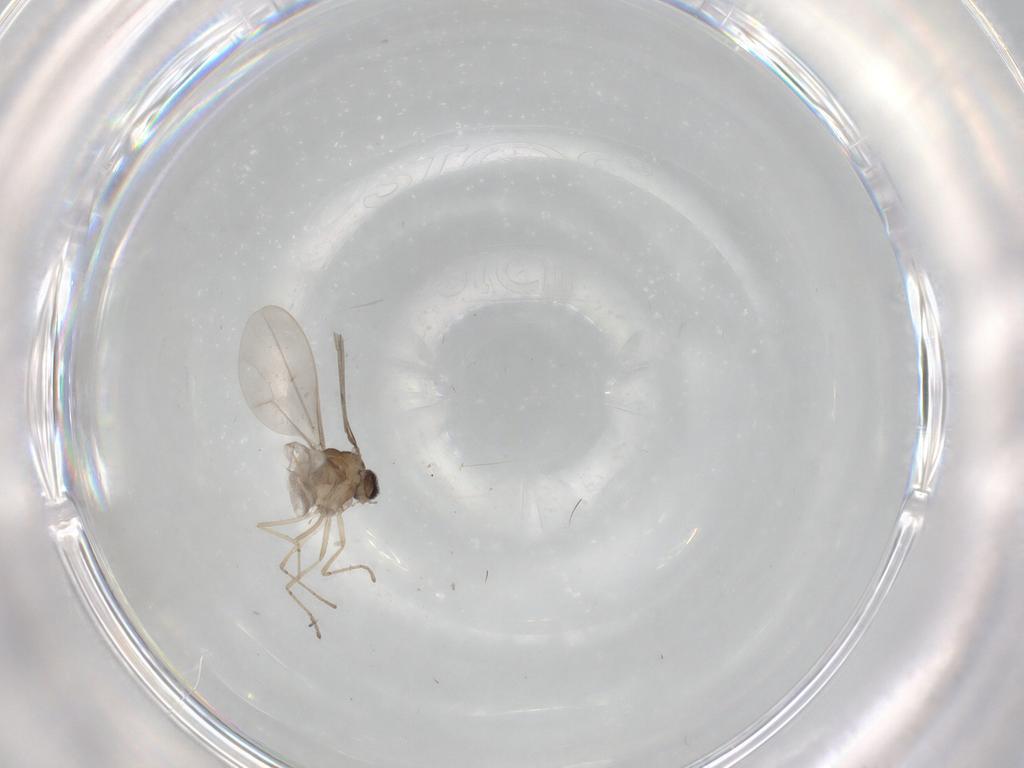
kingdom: Animalia
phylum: Arthropoda
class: Insecta
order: Diptera
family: Cecidomyiidae
